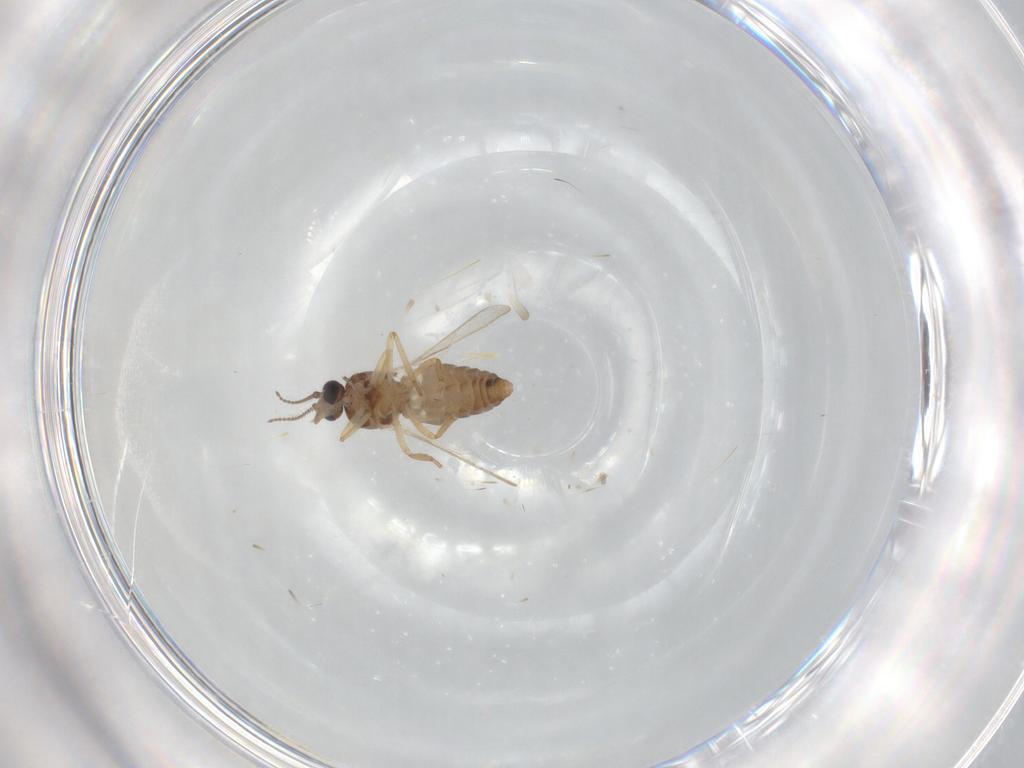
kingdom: Animalia
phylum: Arthropoda
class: Insecta
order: Diptera
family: Ceratopogonidae
